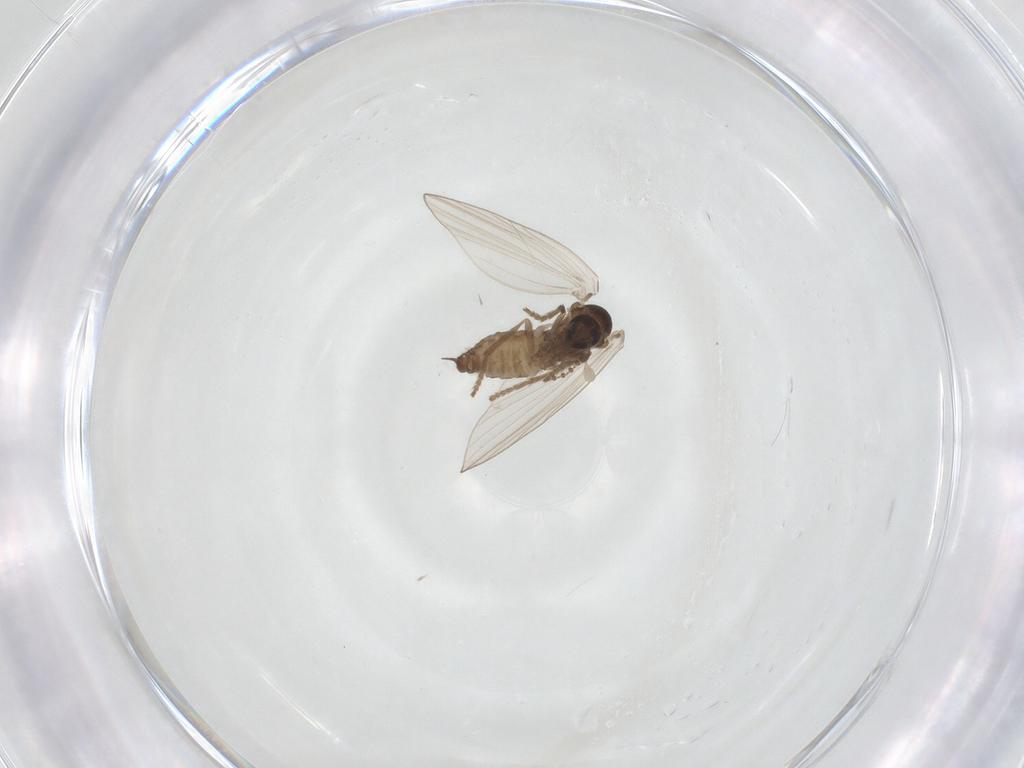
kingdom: Animalia
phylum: Arthropoda
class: Insecta
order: Diptera
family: Psychodidae
